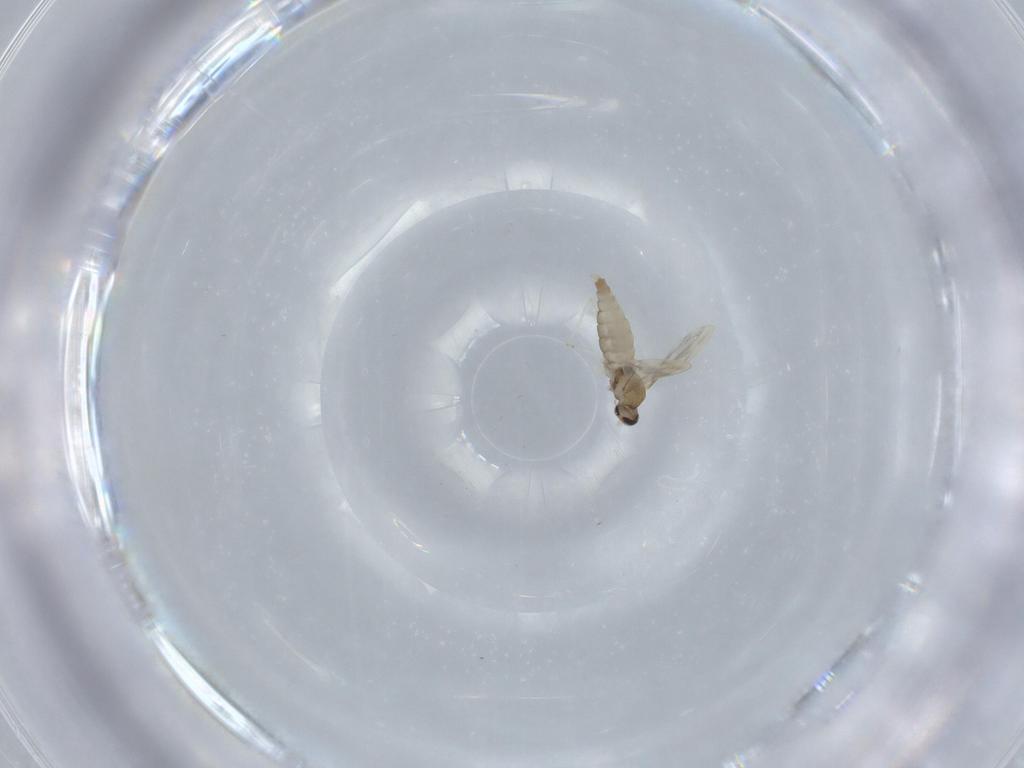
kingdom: Animalia
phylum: Arthropoda
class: Insecta
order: Diptera
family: Cecidomyiidae
